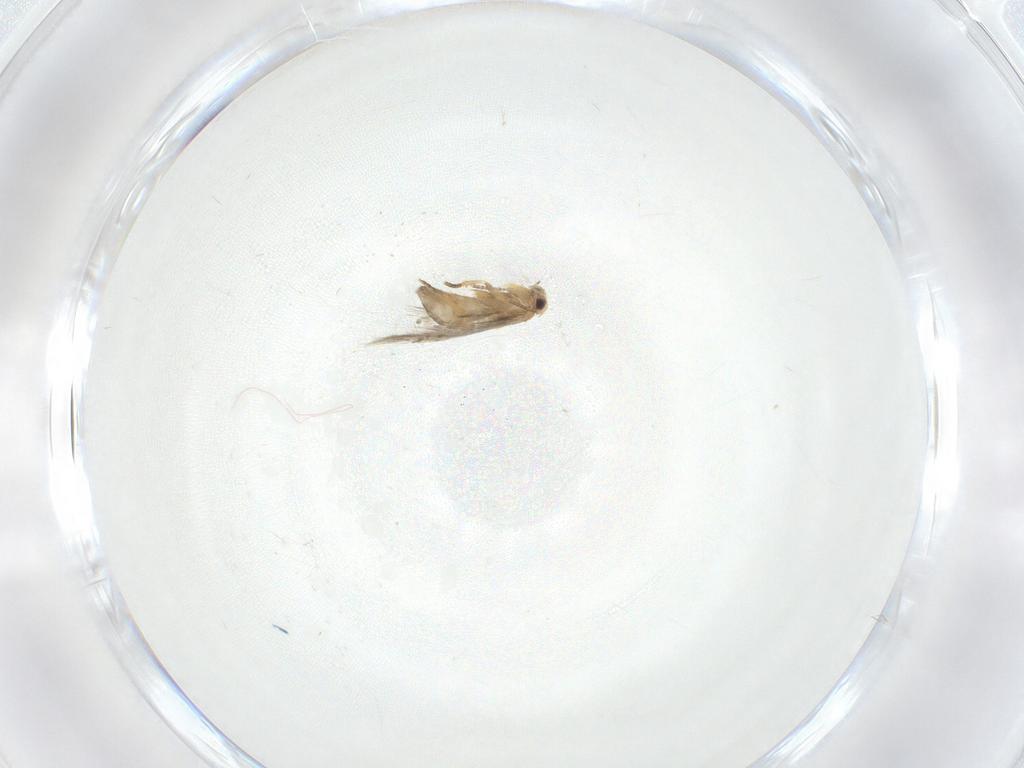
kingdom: Animalia
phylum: Arthropoda
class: Insecta
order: Lepidoptera
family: Nepticulidae
